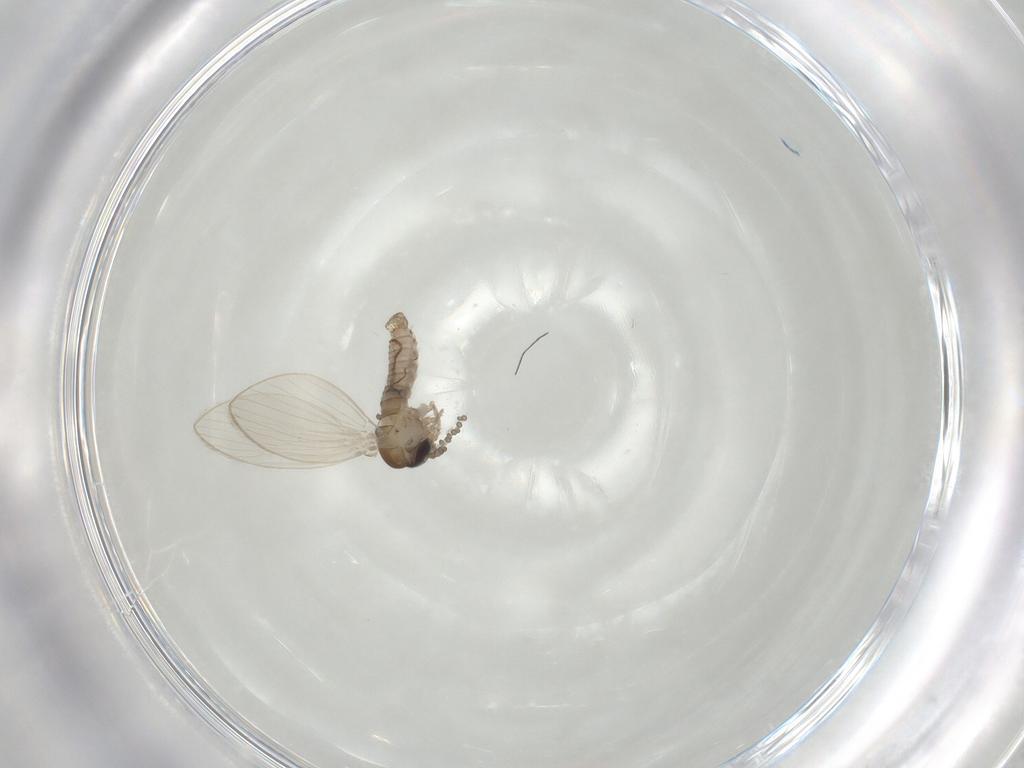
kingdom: Animalia
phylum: Arthropoda
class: Insecta
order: Diptera
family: Psychodidae
